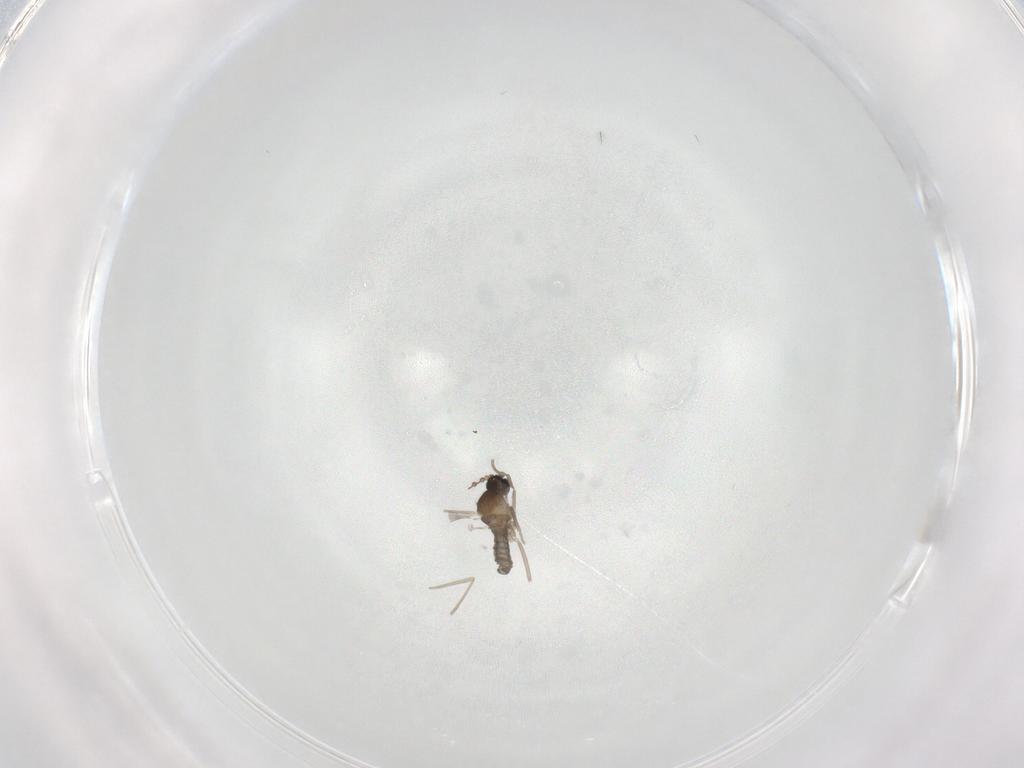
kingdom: Animalia
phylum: Arthropoda
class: Insecta
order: Diptera
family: Cecidomyiidae
